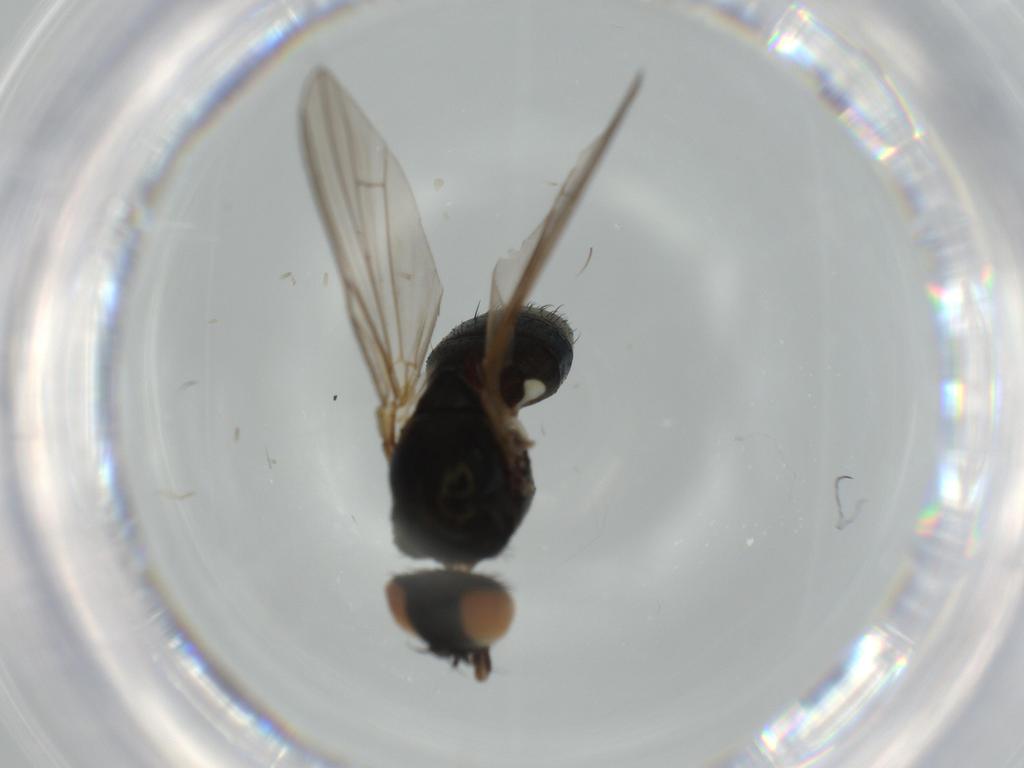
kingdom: Animalia
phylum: Arthropoda
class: Insecta
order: Diptera
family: Anthomyiidae
